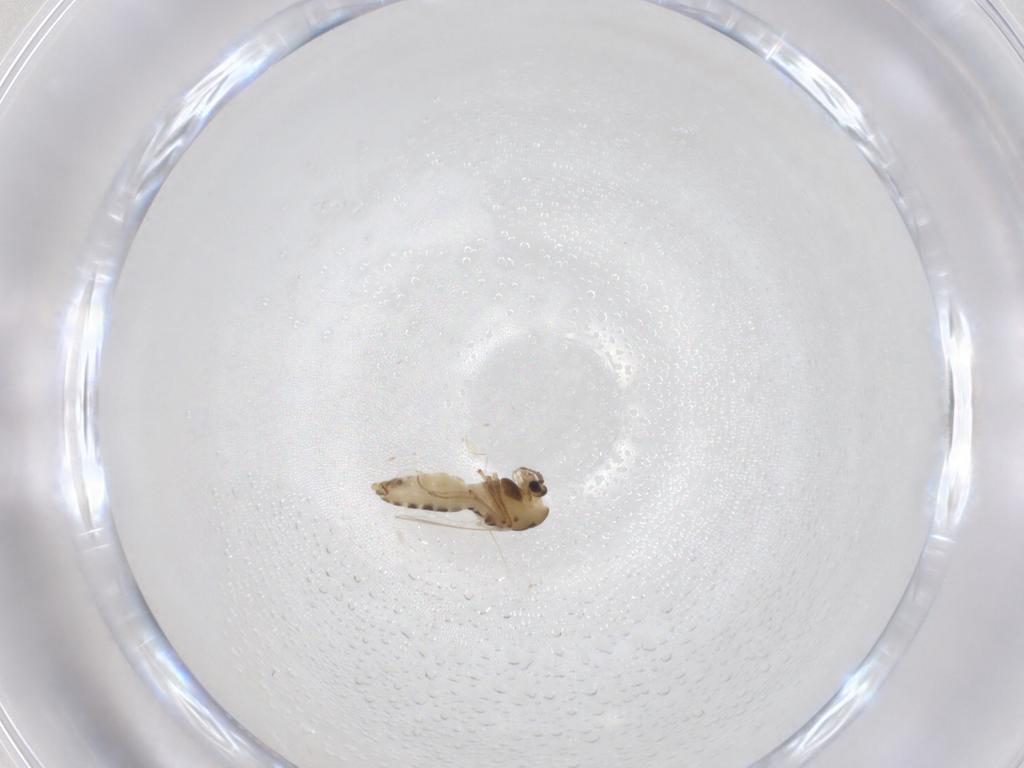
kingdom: Animalia
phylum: Arthropoda
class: Insecta
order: Diptera
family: Chironomidae
